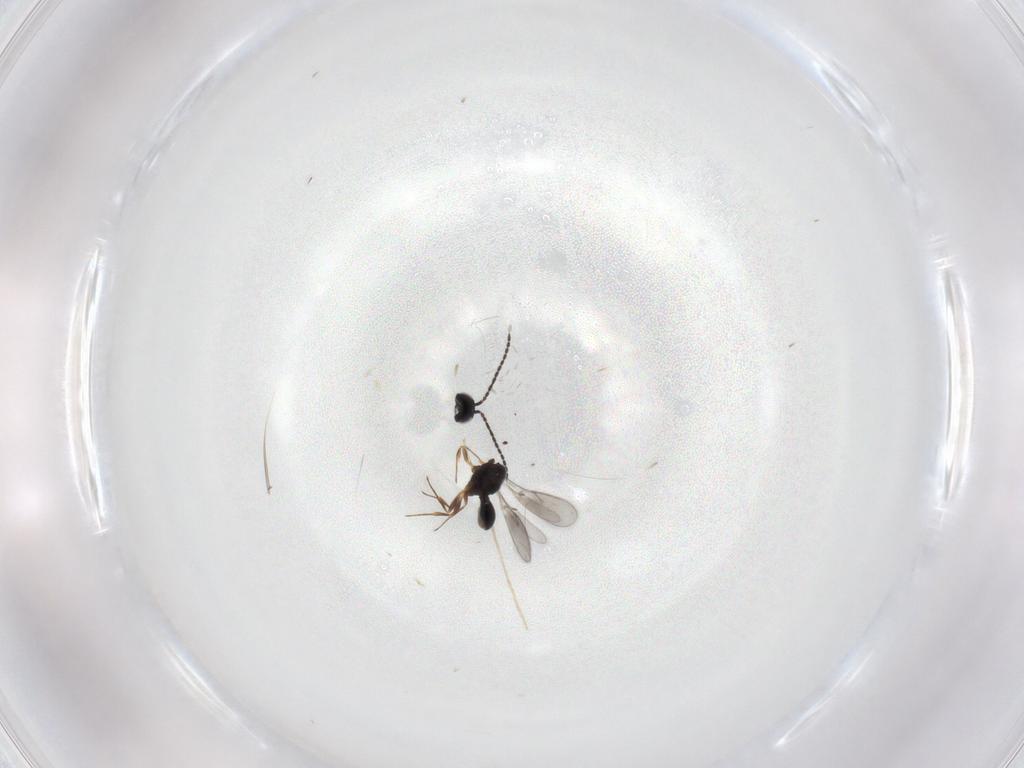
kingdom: Animalia
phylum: Arthropoda
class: Insecta
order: Hymenoptera
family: Scelionidae
